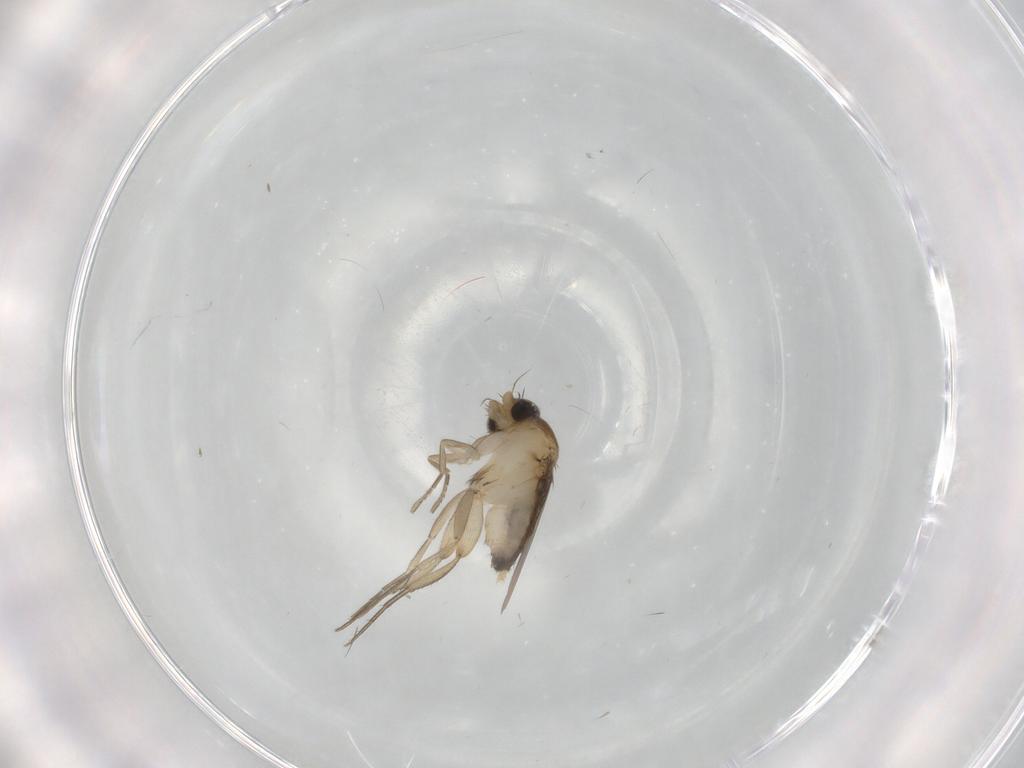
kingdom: Animalia
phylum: Arthropoda
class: Insecta
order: Diptera
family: Phoridae
